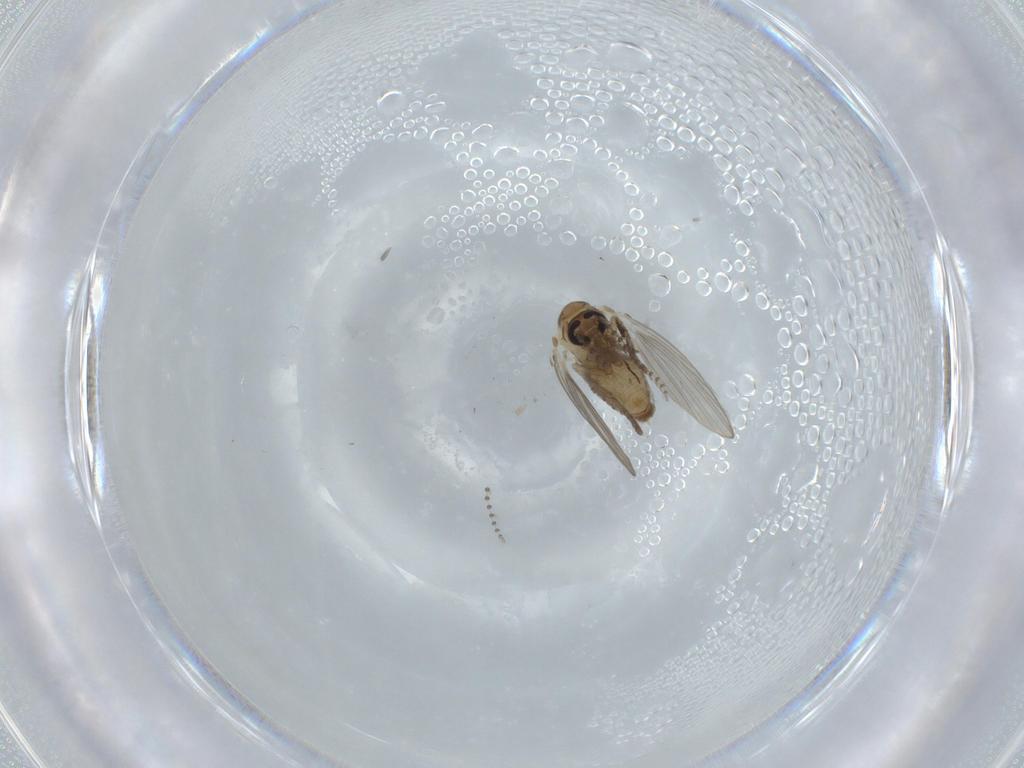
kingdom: Animalia
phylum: Arthropoda
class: Insecta
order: Diptera
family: Psychodidae
